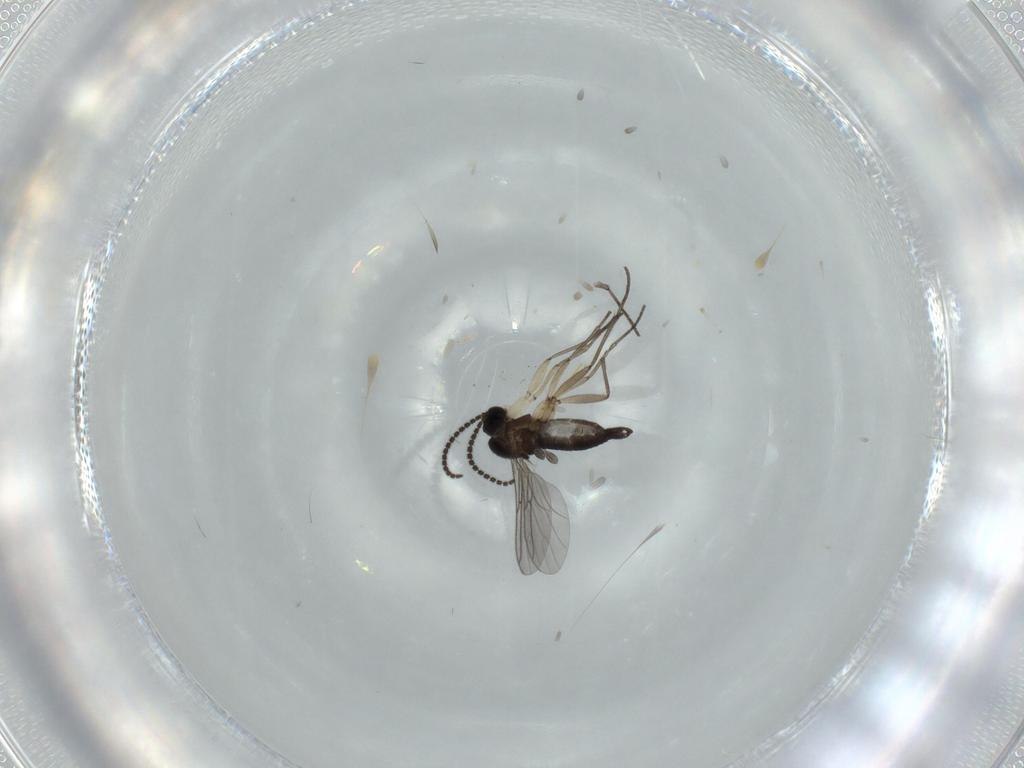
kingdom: Animalia
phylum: Arthropoda
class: Insecta
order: Diptera
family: Sciaridae
